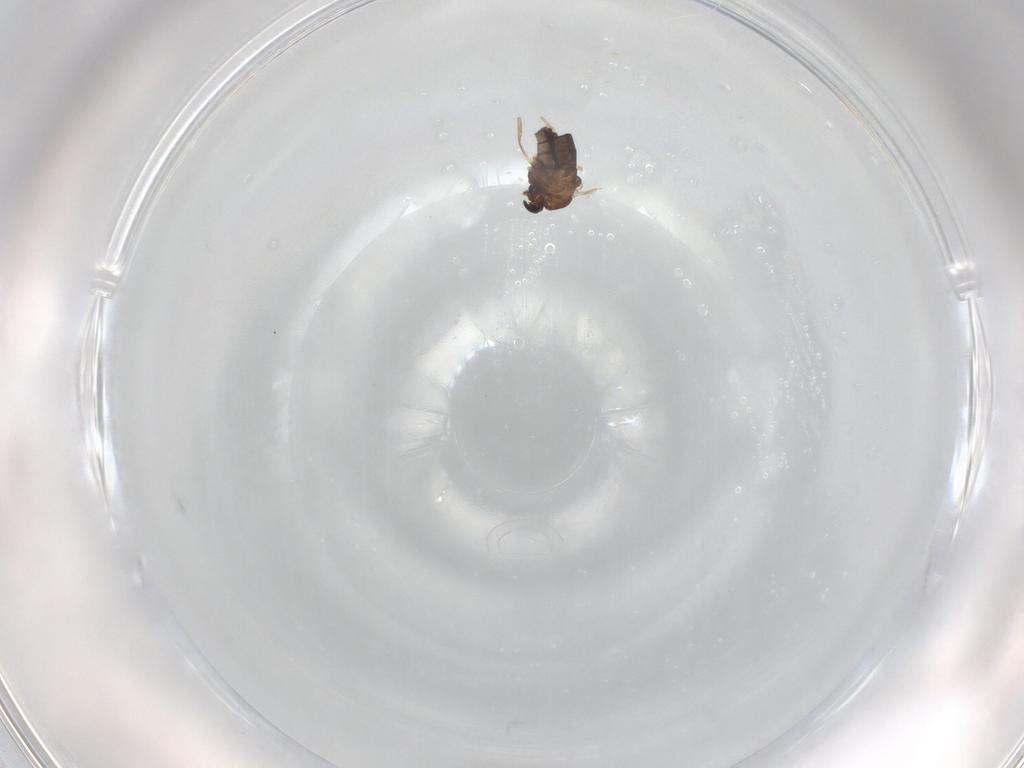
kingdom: Animalia
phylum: Arthropoda
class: Insecta
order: Diptera
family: Chironomidae
